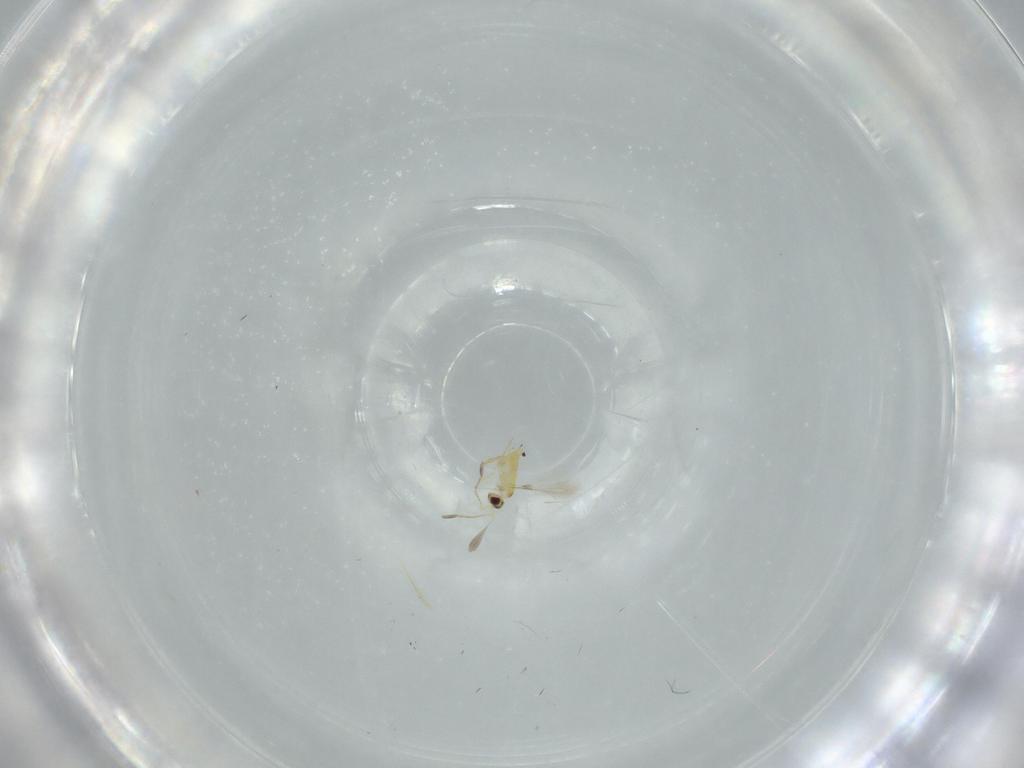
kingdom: Animalia
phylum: Arthropoda
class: Insecta
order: Hymenoptera
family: Mymaridae
